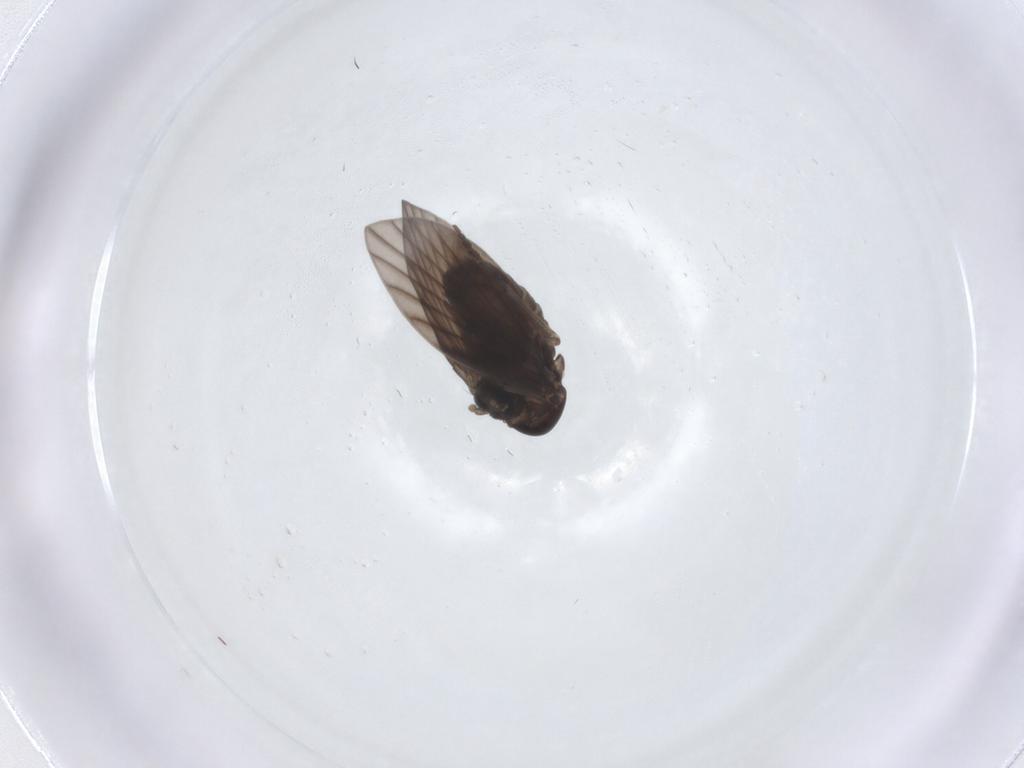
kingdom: Animalia
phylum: Arthropoda
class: Insecta
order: Diptera
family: Psychodidae
